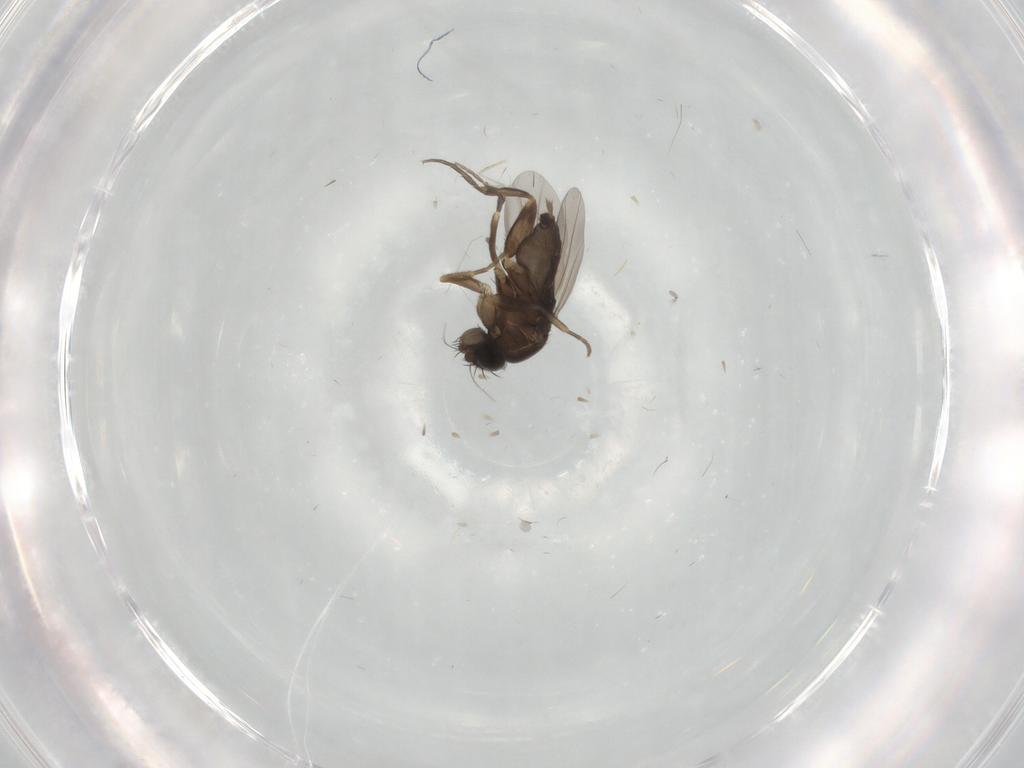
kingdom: Animalia
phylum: Arthropoda
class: Insecta
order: Diptera
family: Phoridae
